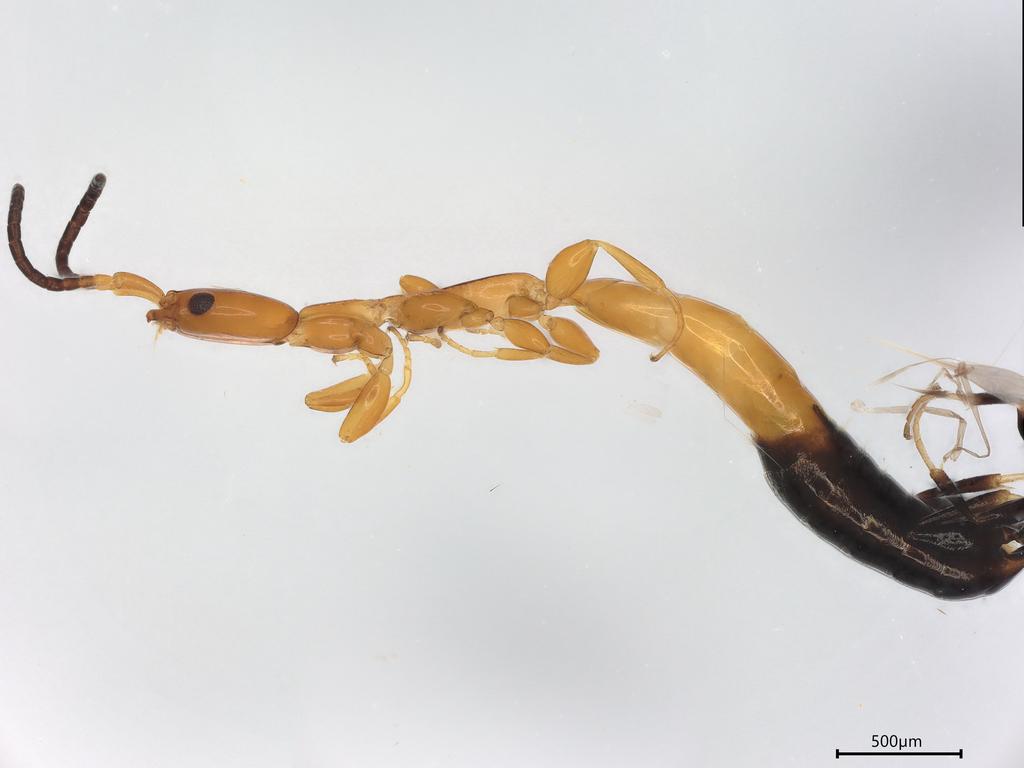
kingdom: Animalia
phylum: Arthropoda
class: Insecta
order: Hymenoptera
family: Bethylidae
